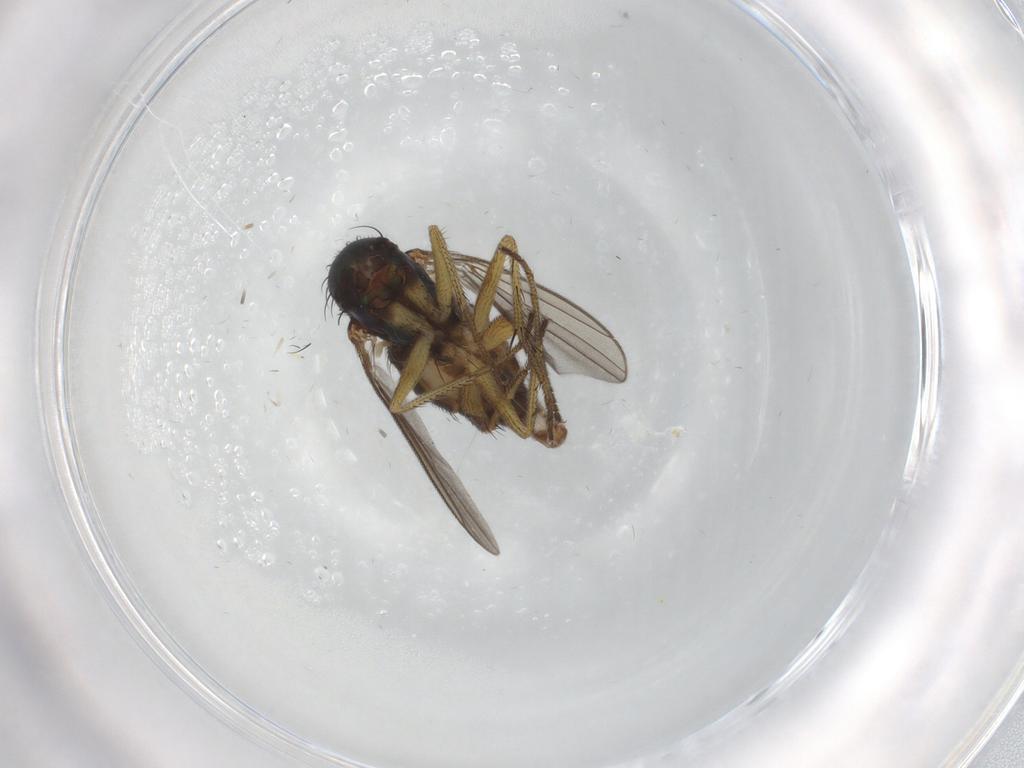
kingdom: Animalia
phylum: Arthropoda
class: Insecta
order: Diptera
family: Dolichopodidae
